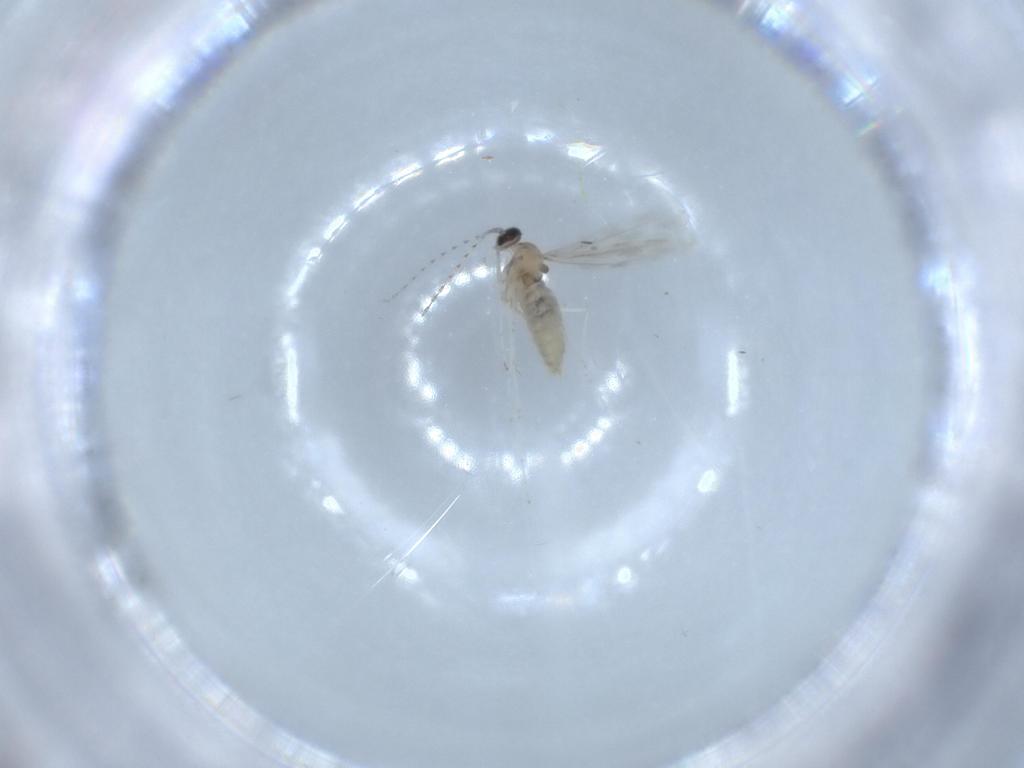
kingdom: Animalia
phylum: Arthropoda
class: Insecta
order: Diptera
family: Cecidomyiidae
